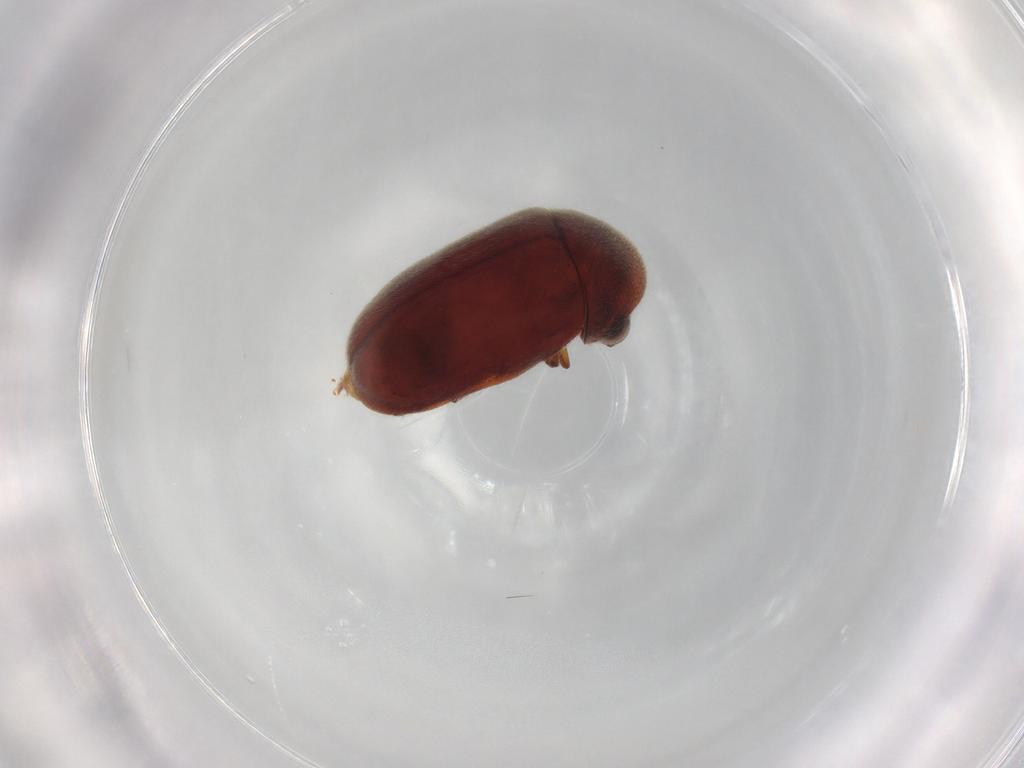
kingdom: Animalia
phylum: Arthropoda
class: Insecta
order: Coleoptera
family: Ptinidae
